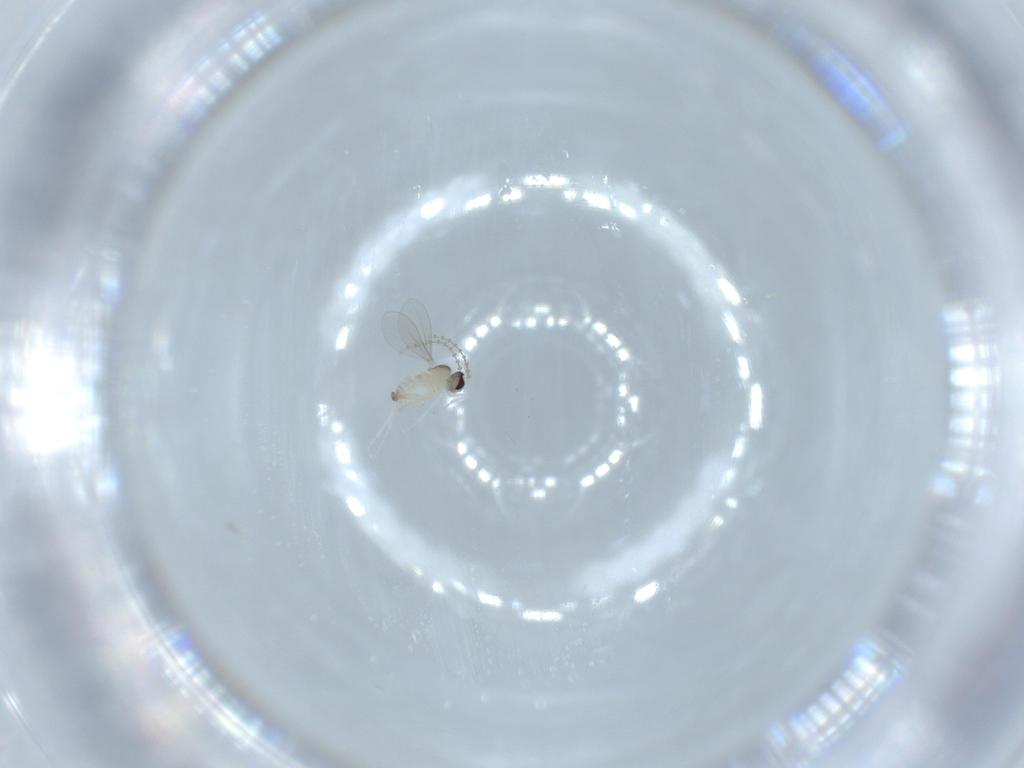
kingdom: Animalia
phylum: Arthropoda
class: Insecta
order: Diptera
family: Cecidomyiidae
